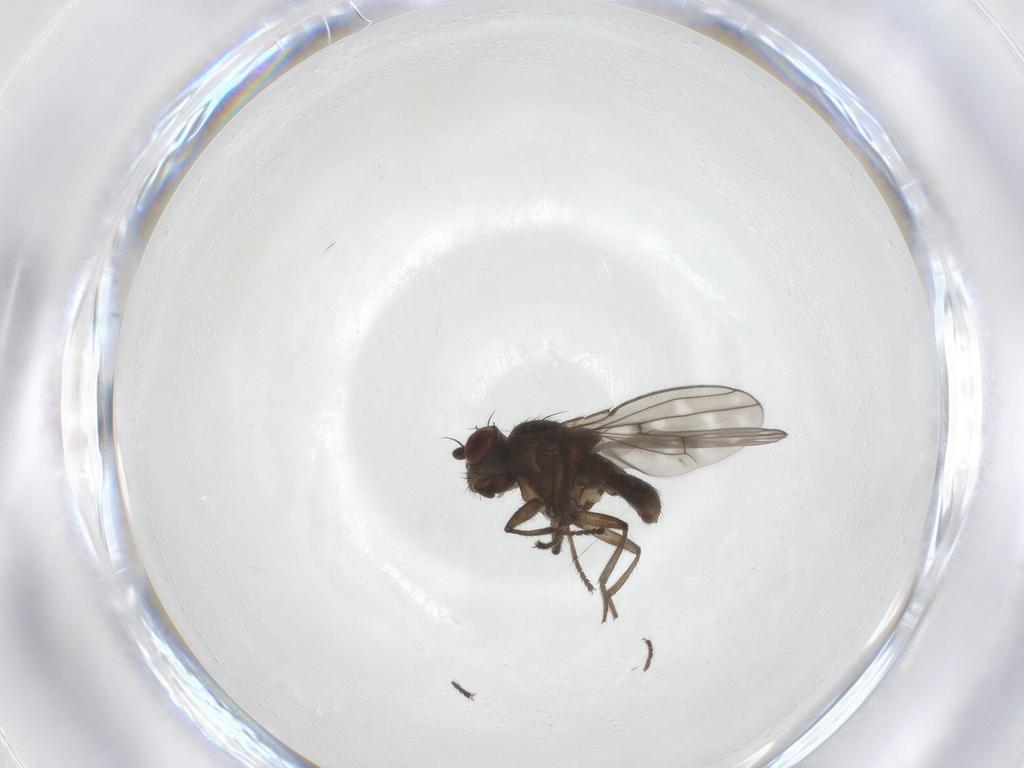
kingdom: Animalia
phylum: Arthropoda
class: Insecta
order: Diptera
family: Ephydridae
